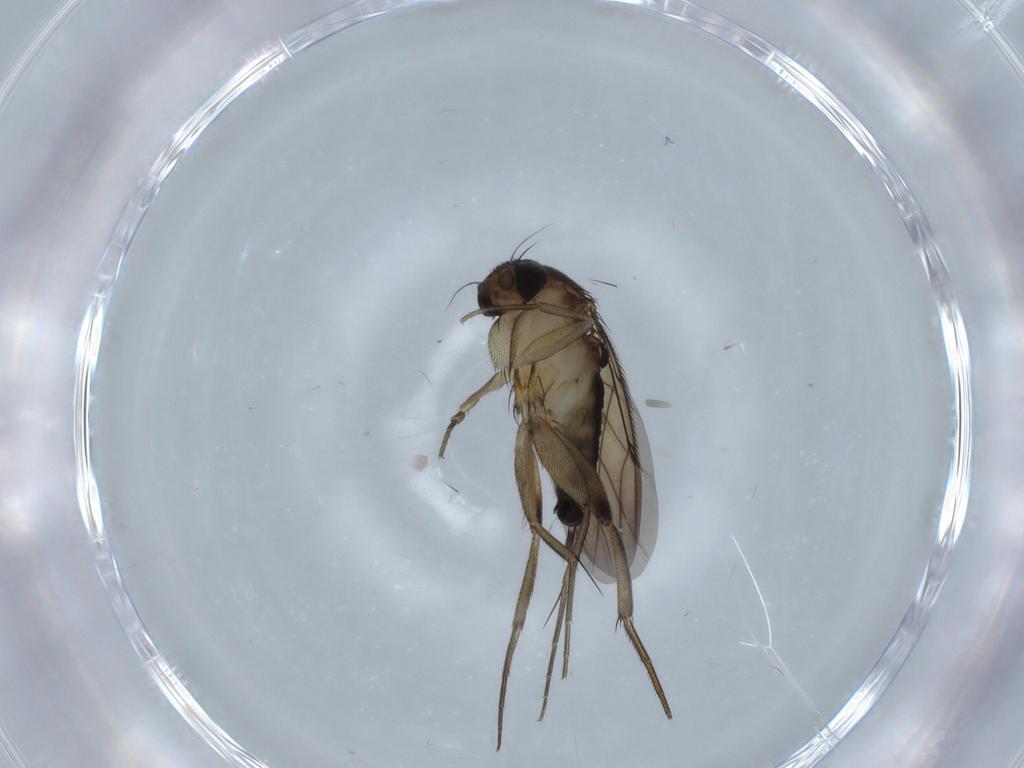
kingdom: Animalia
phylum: Arthropoda
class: Insecta
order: Diptera
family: Phoridae
